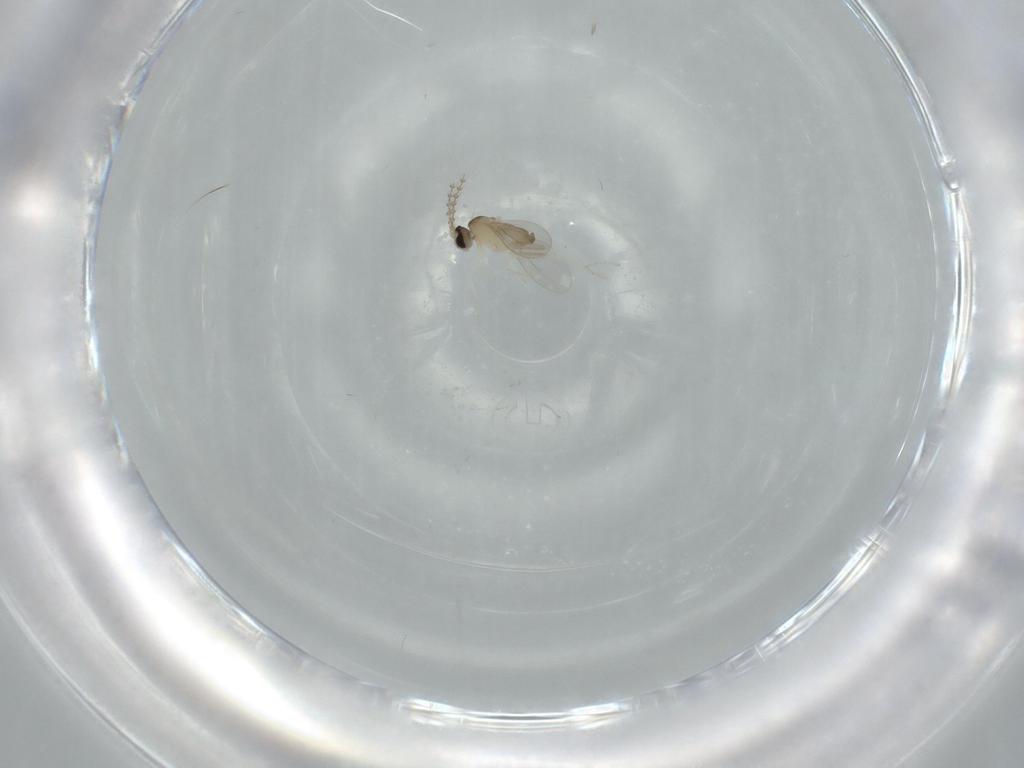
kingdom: Animalia
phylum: Arthropoda
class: Insecta
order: Diptera
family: Cecidomyiidae
